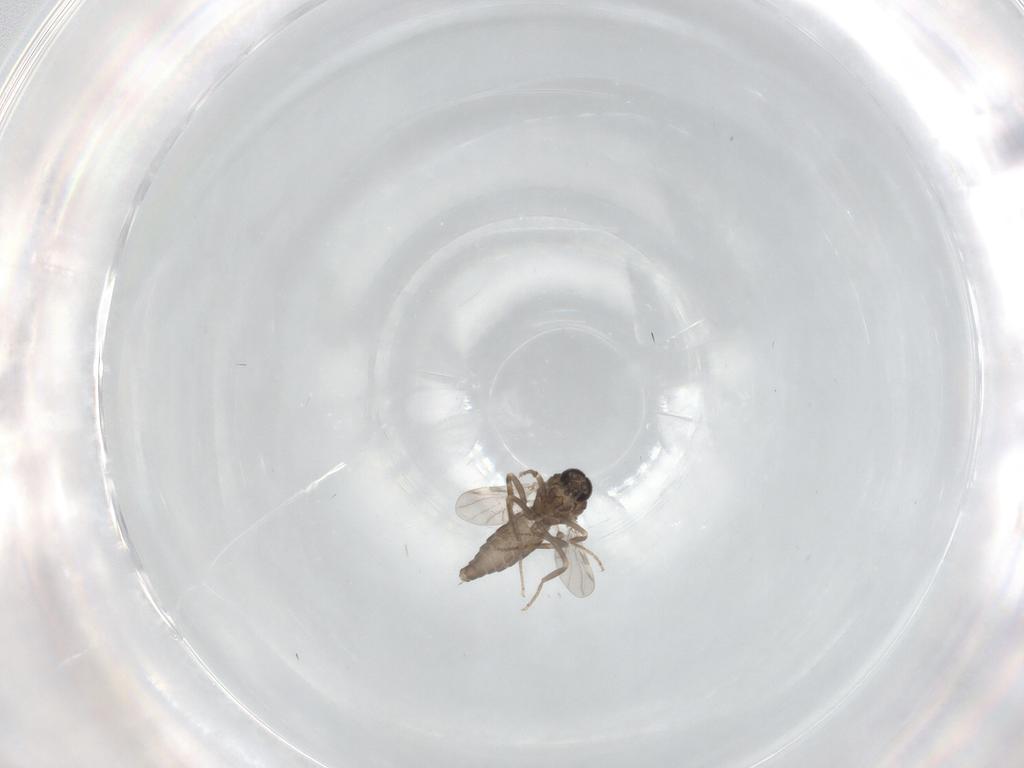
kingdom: Animalia
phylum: Arthropoda
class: Insecta
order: Diptera
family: Ceratopogonidae
